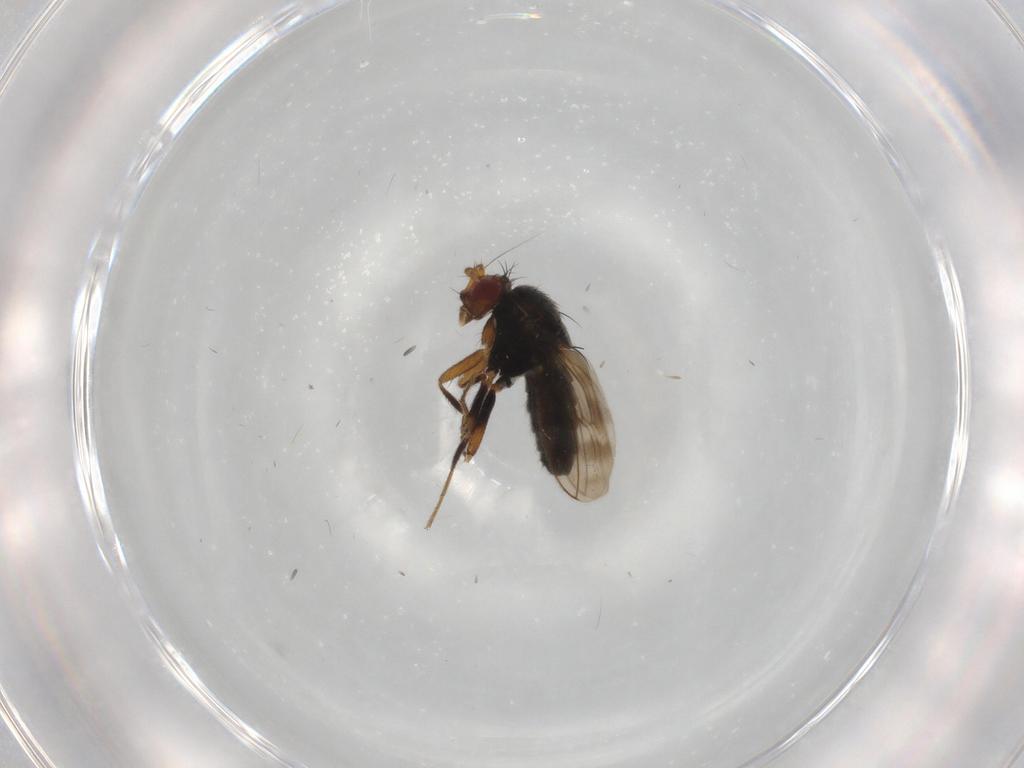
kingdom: Animalia
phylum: Arthropoda
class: Insecta
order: Diptera
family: Sphaeroceridae
